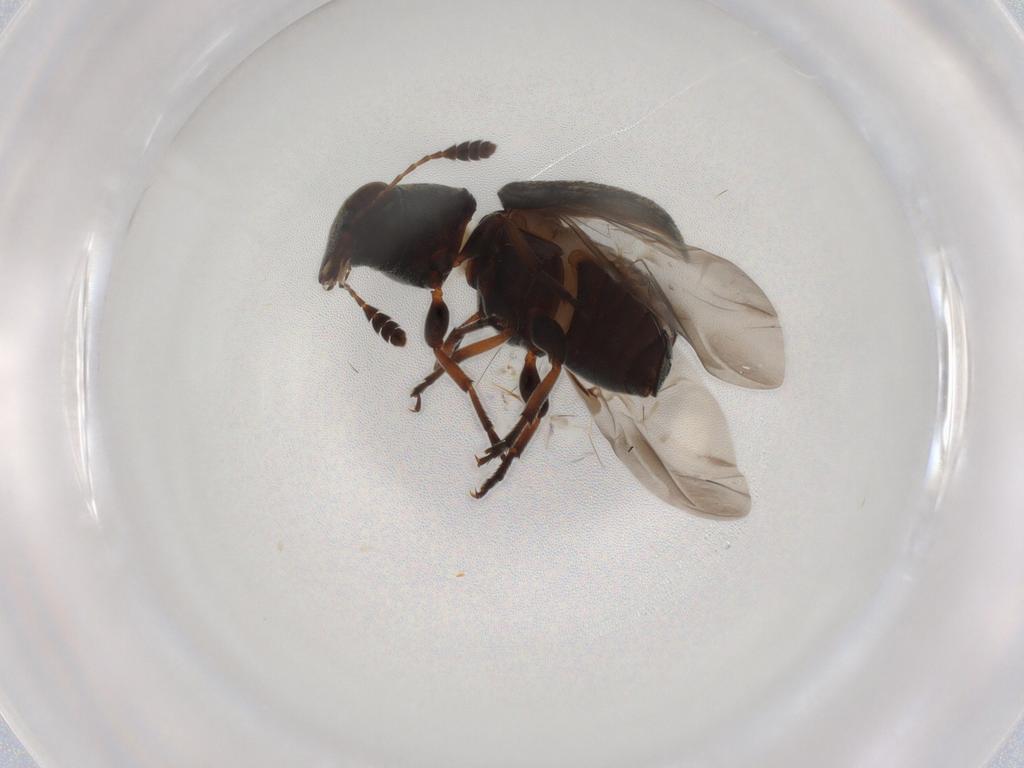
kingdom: Animalia
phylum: Arthropoda
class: Insecta
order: Coleoptera
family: Anthribidae
